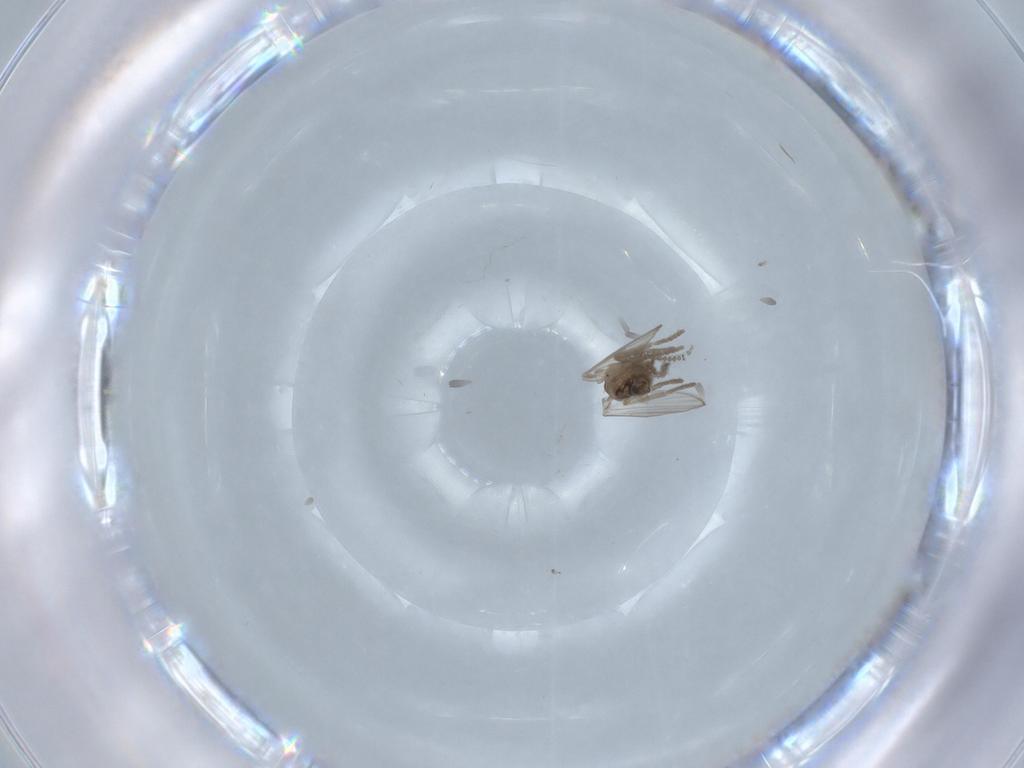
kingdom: Animalia
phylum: Arthropoda
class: Insecta
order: Diptera
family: Psychodidae
